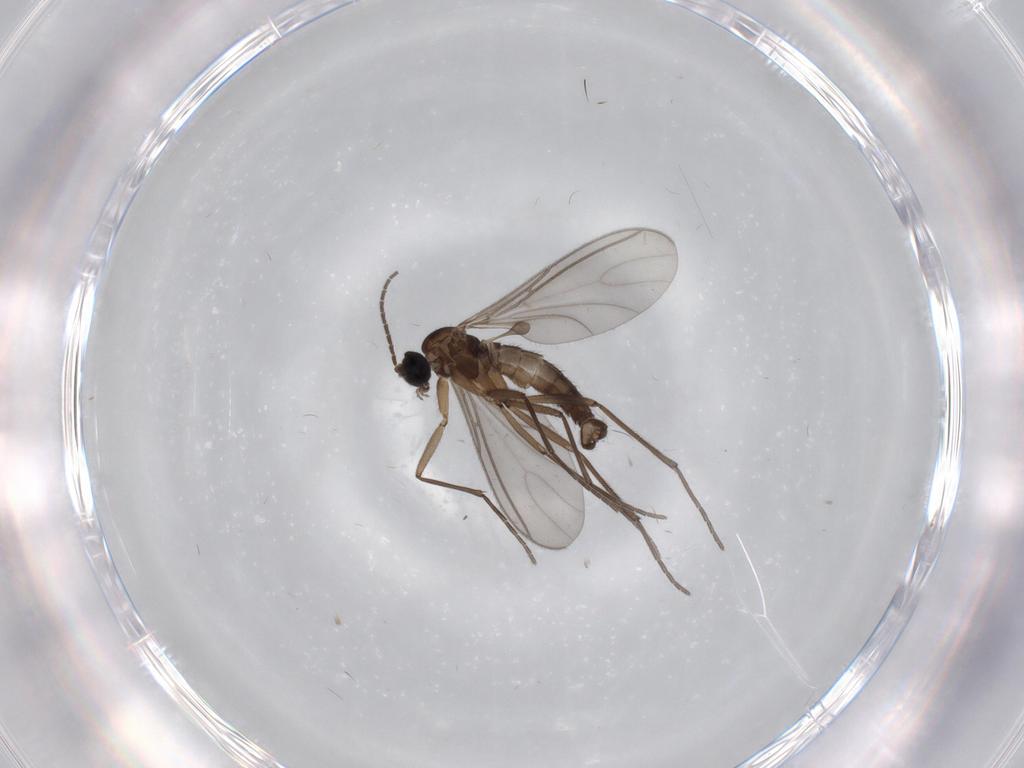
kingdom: Animalia
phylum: Arthropoda
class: Insecta
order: Diptera
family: Sciaridae
